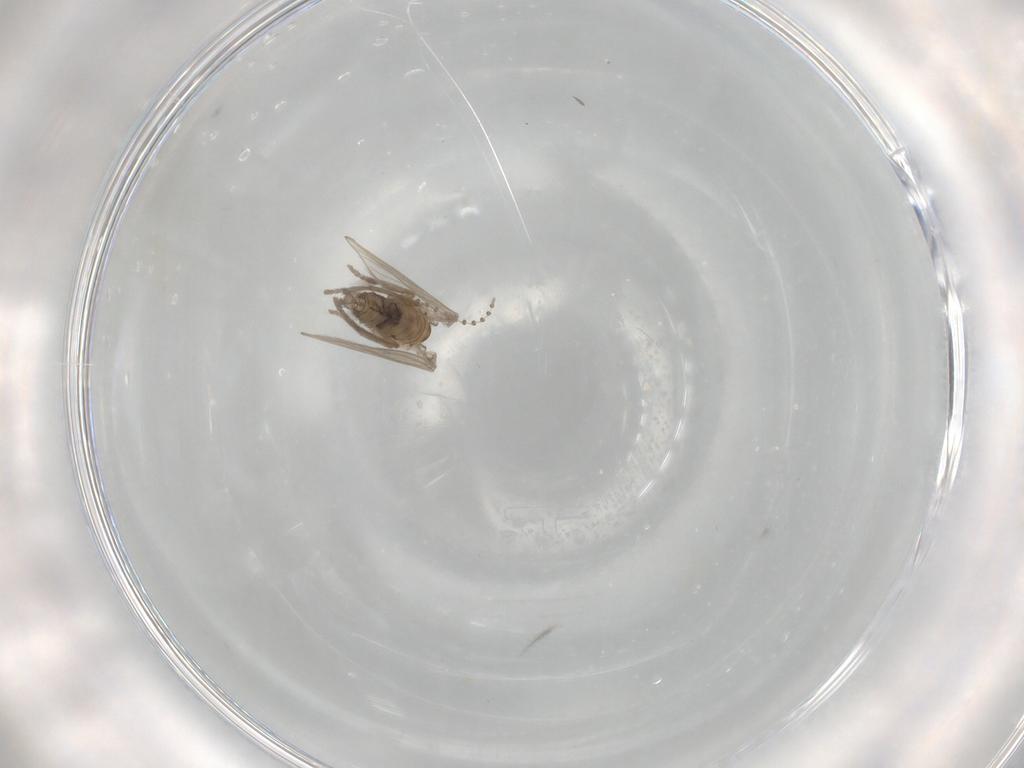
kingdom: Animalia
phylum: Arthropoda
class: Insecta
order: Diptera
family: Psychodidae
